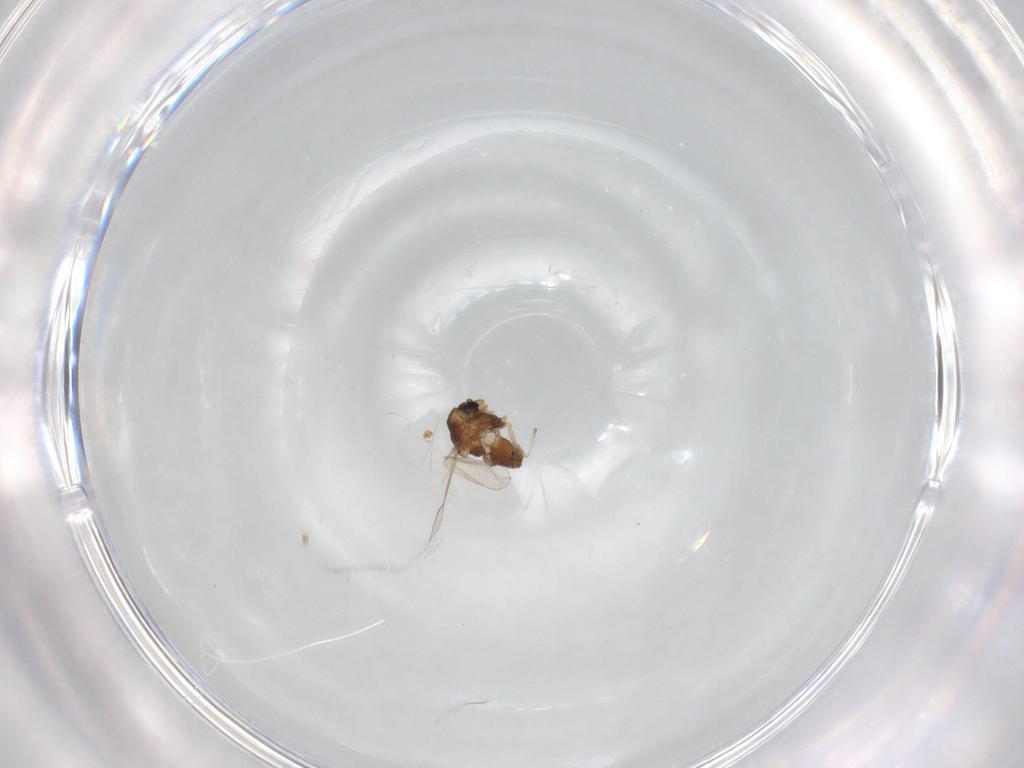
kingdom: Animalia
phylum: Arthropoda
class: Insecta
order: Diptera
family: Chironomidae
